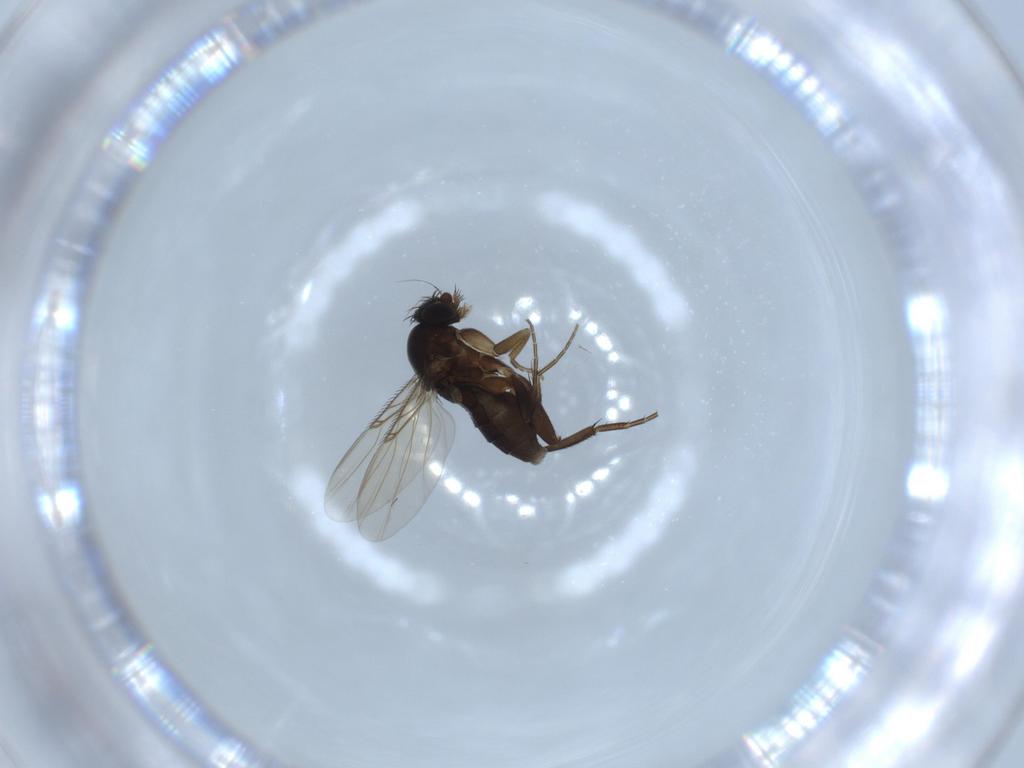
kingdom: Animalia
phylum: Arthropoda
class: Insecta
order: Diptera
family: Phoridae
